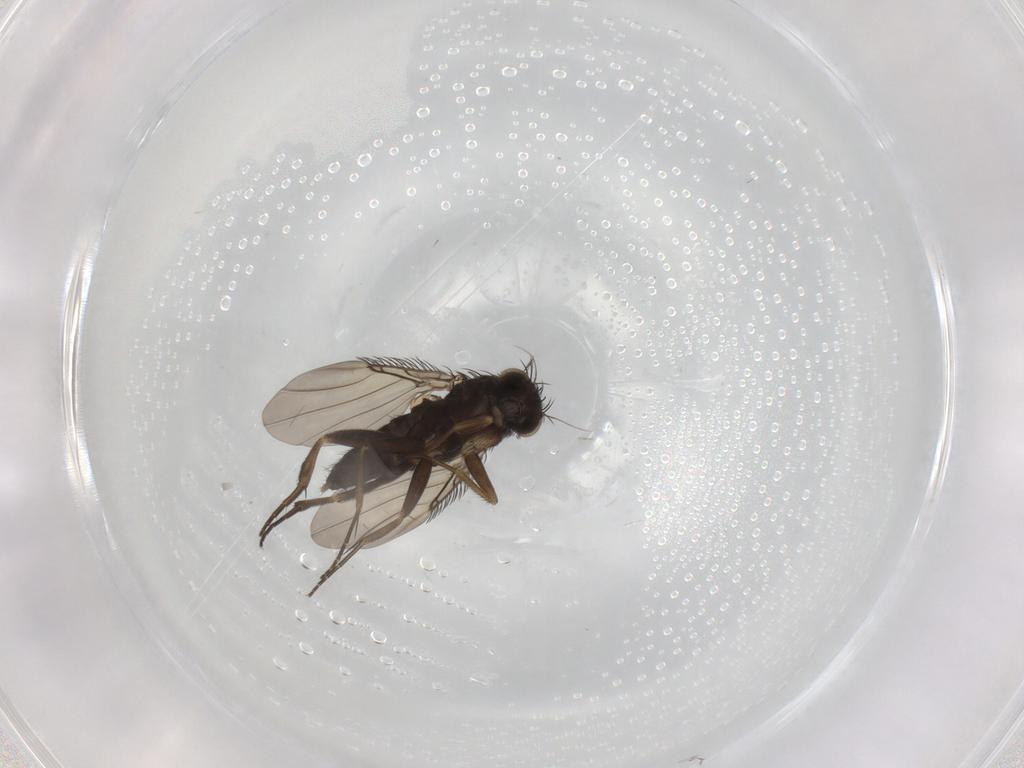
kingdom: Animalia
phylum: Arthropoda
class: Insecta
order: Diptera
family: Phoridae
